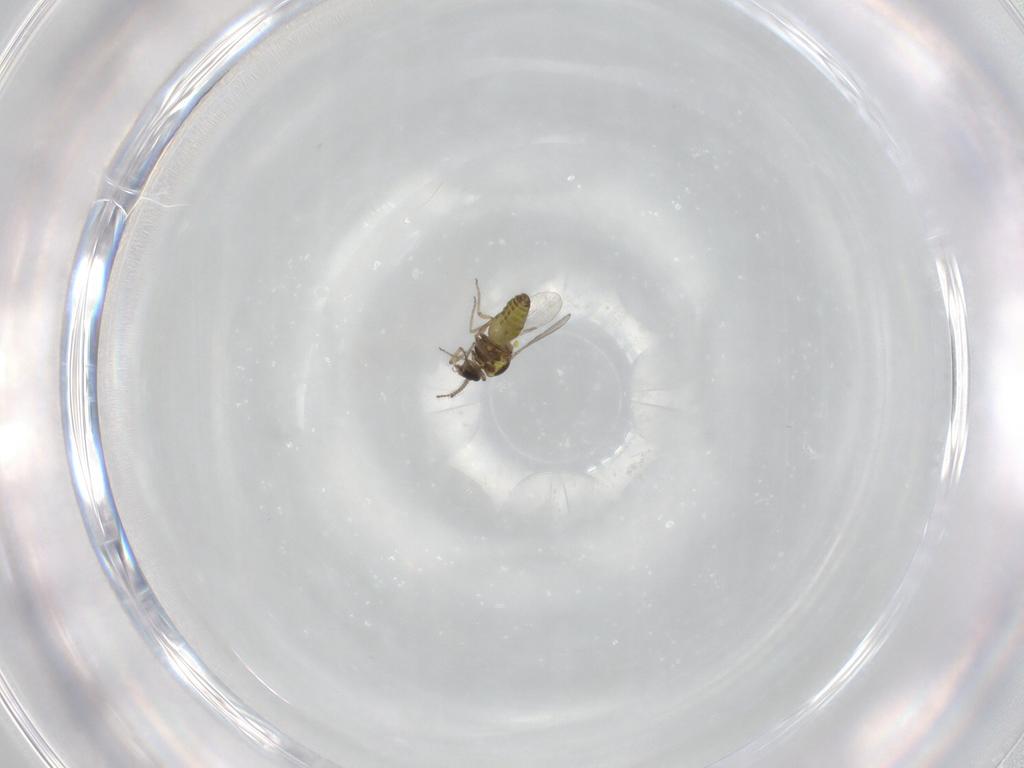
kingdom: Animalia
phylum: Arthropoda
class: Insecta
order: Diptera
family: Ceratopogonidae
